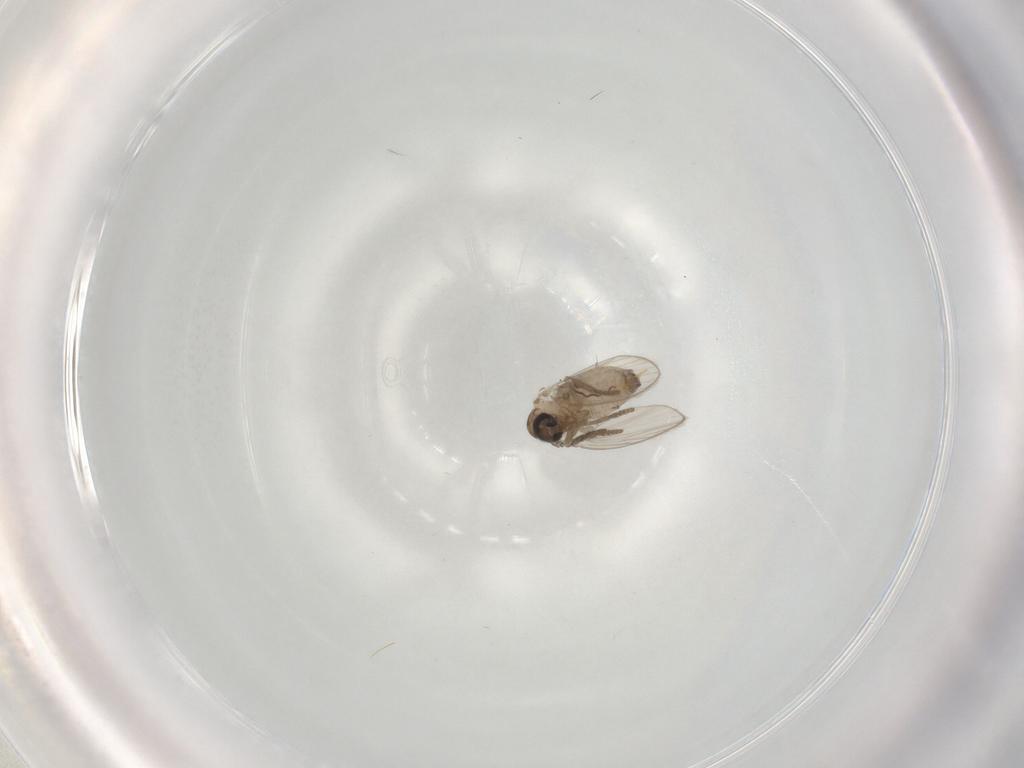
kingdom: Animalia
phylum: Arthropoda
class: Insecta
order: Diptera
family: Psychodidae
